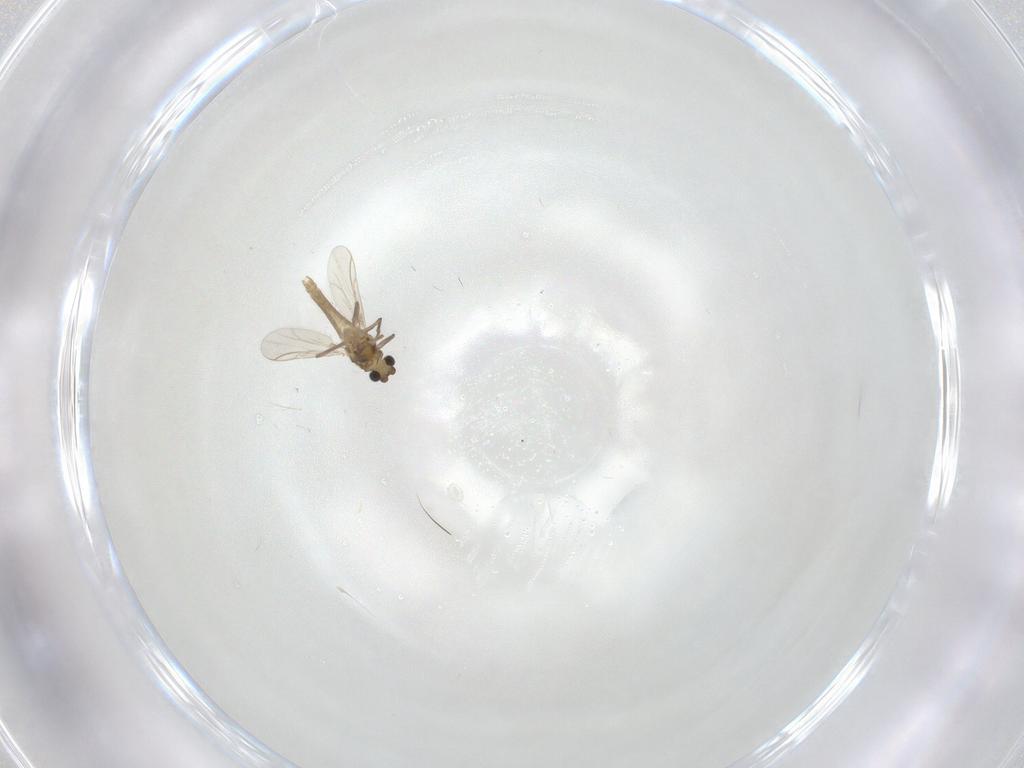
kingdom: Animalia
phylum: Arthropoda
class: Insecta
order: Diptera
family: Chironomidae
